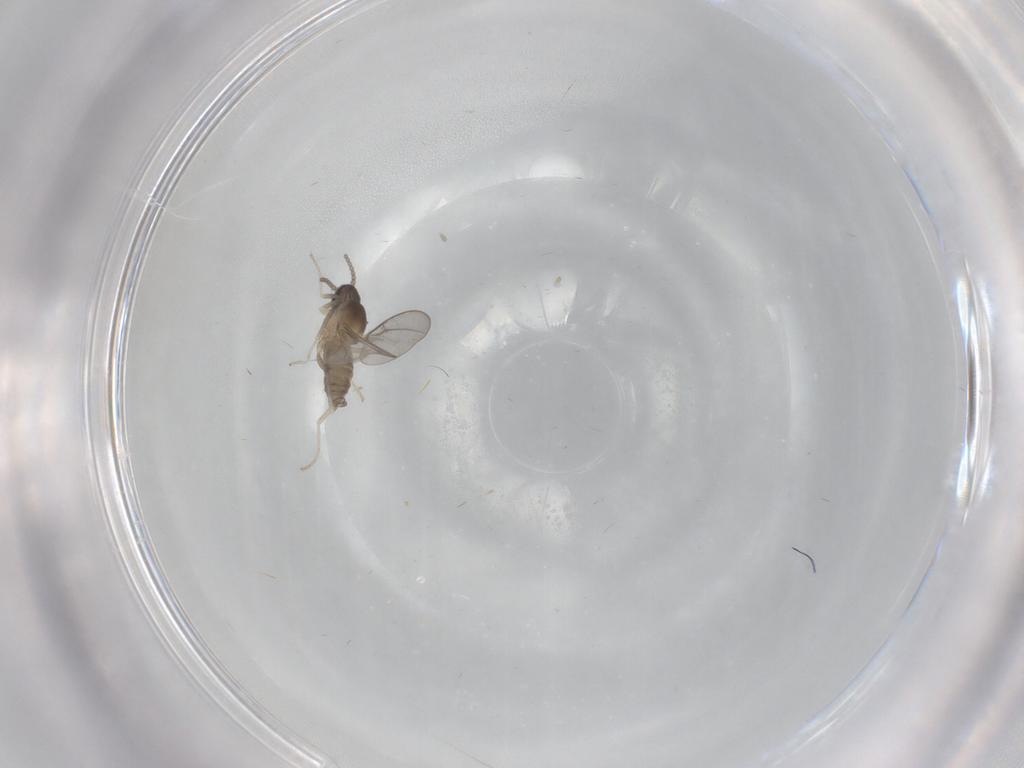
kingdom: Animalia
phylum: Arthropoda
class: Insecta
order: Diptera
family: Cecidomyiidae
